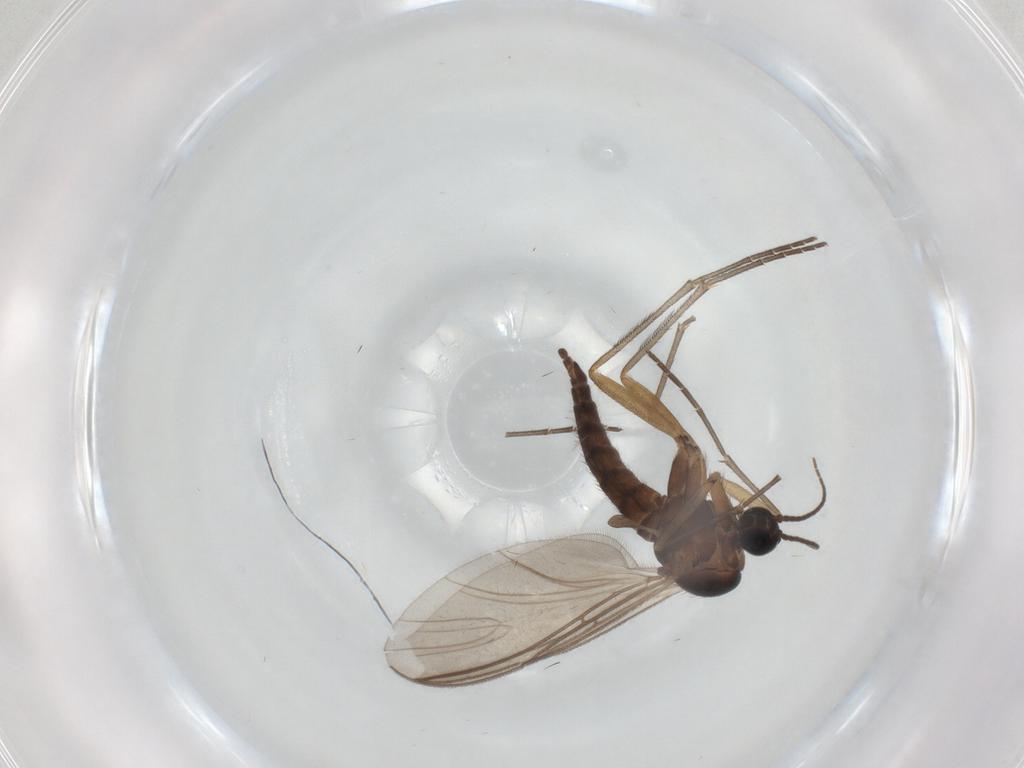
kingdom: Animalia
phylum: Arthropoda
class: Insecta
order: Diptera
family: Sciaridae
